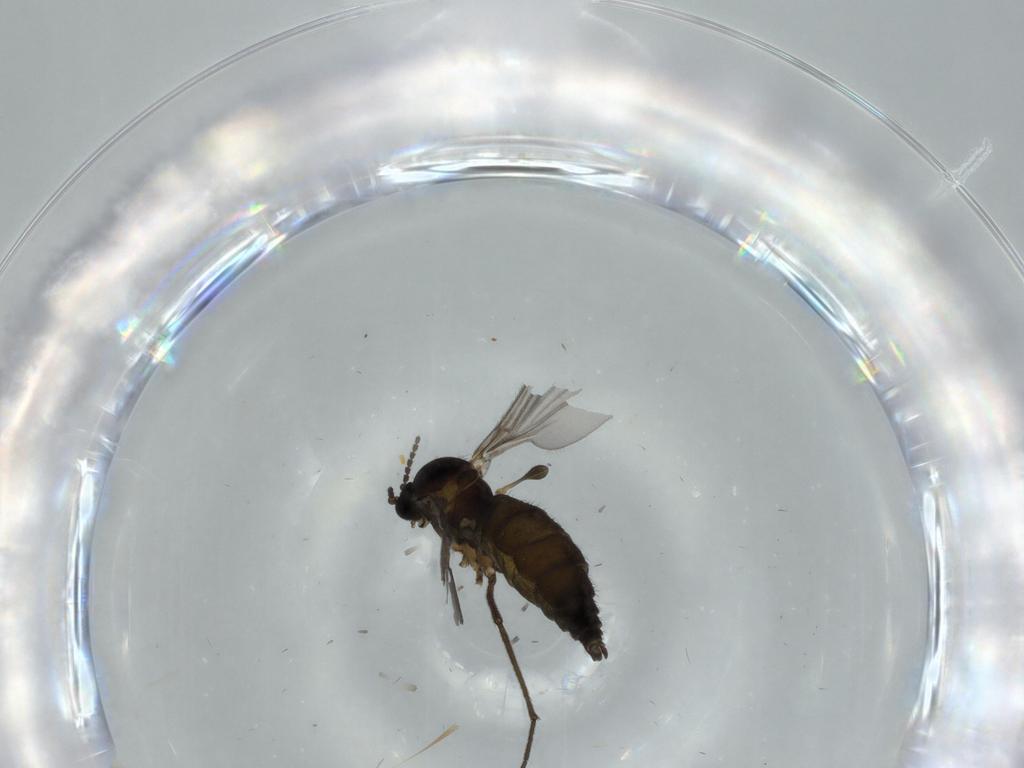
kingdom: Animalia
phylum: Arthropoda
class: Insecta
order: Diptera
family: Sciaridae
